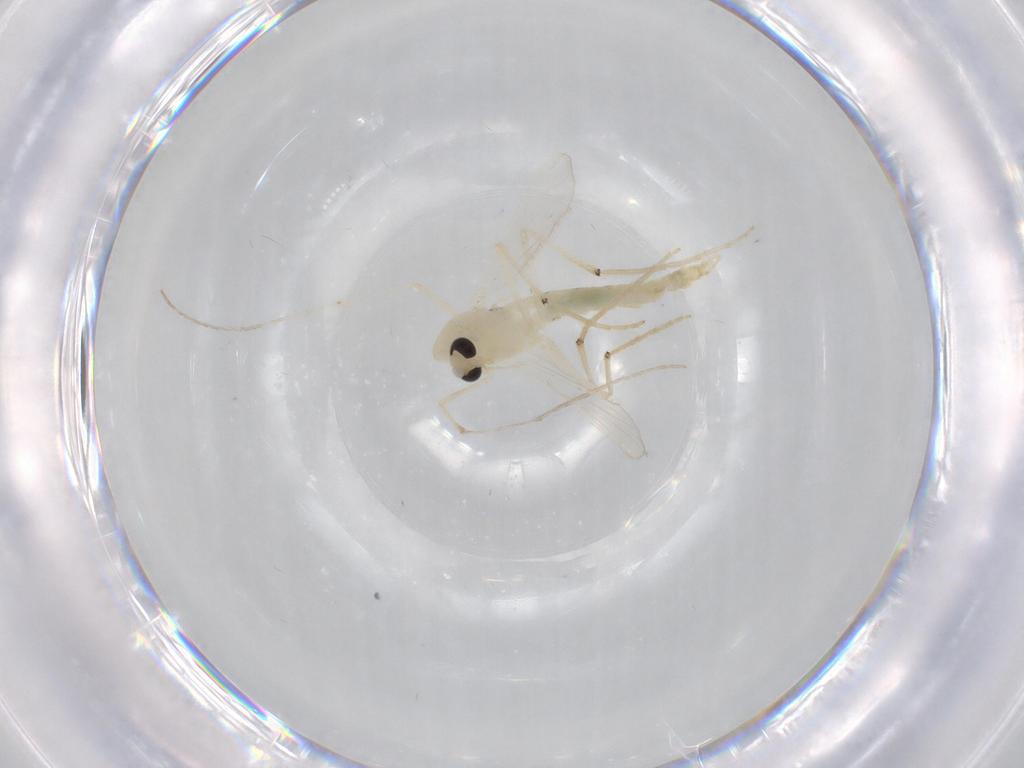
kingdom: Animalia
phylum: Arthropoda
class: Insecta
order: Diptera
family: Chironomidae
